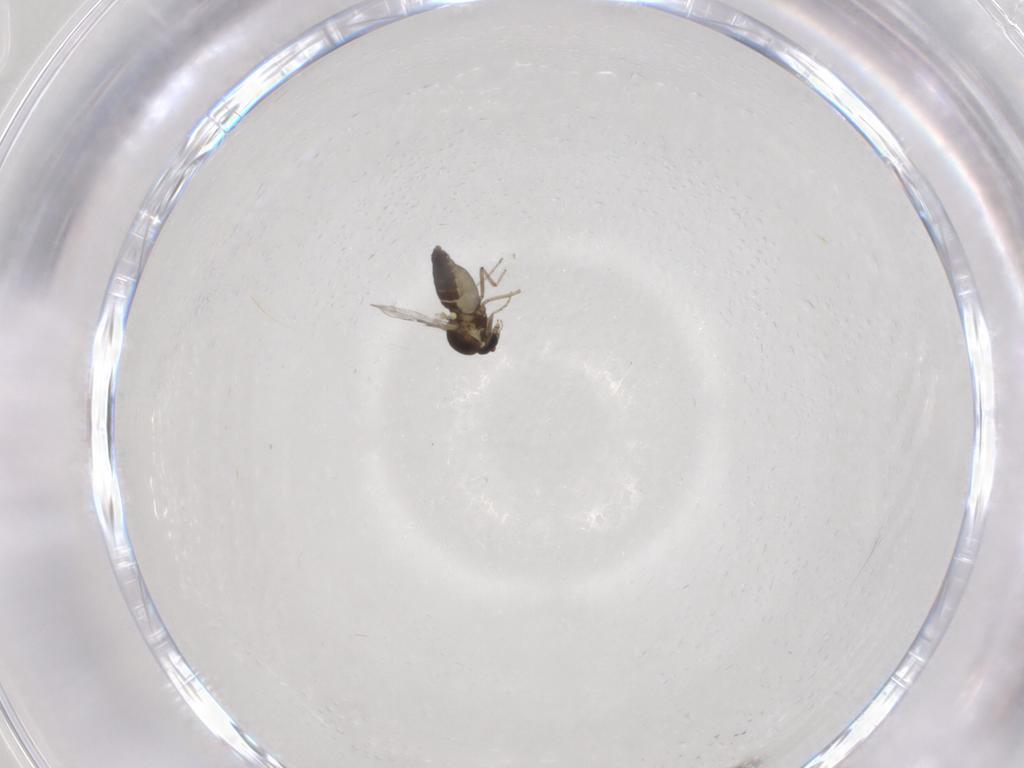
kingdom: Animalia
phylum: Arthropoda
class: Insecta
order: Diptera
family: Ceratopogonidae
